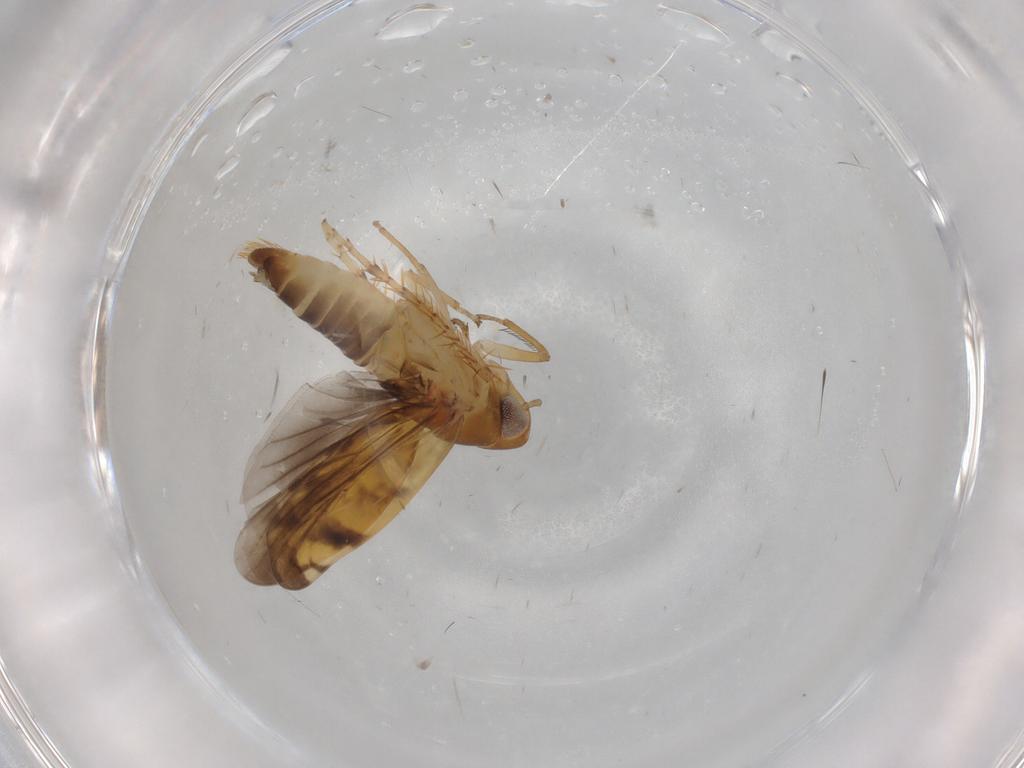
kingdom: Animalia
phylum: Arthropoda
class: Insecta
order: Hemiptera
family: Cicadellidae
